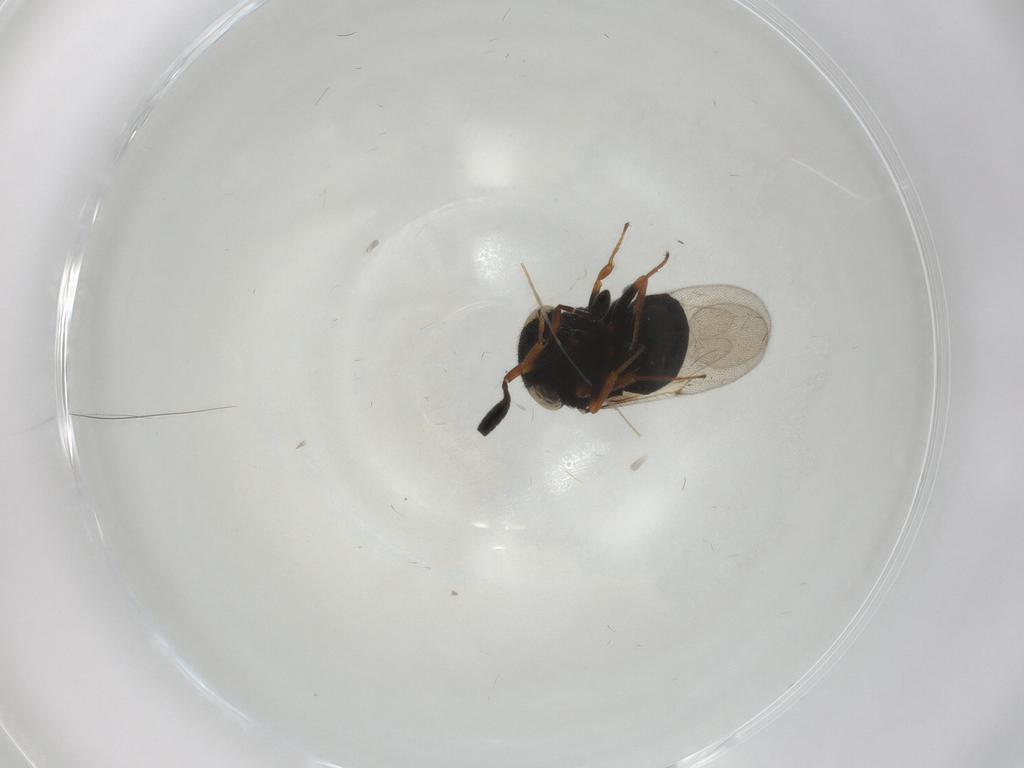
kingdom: Animalia
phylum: Arthropoda
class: Insecta
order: Hymenoptera
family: Scelionidae
